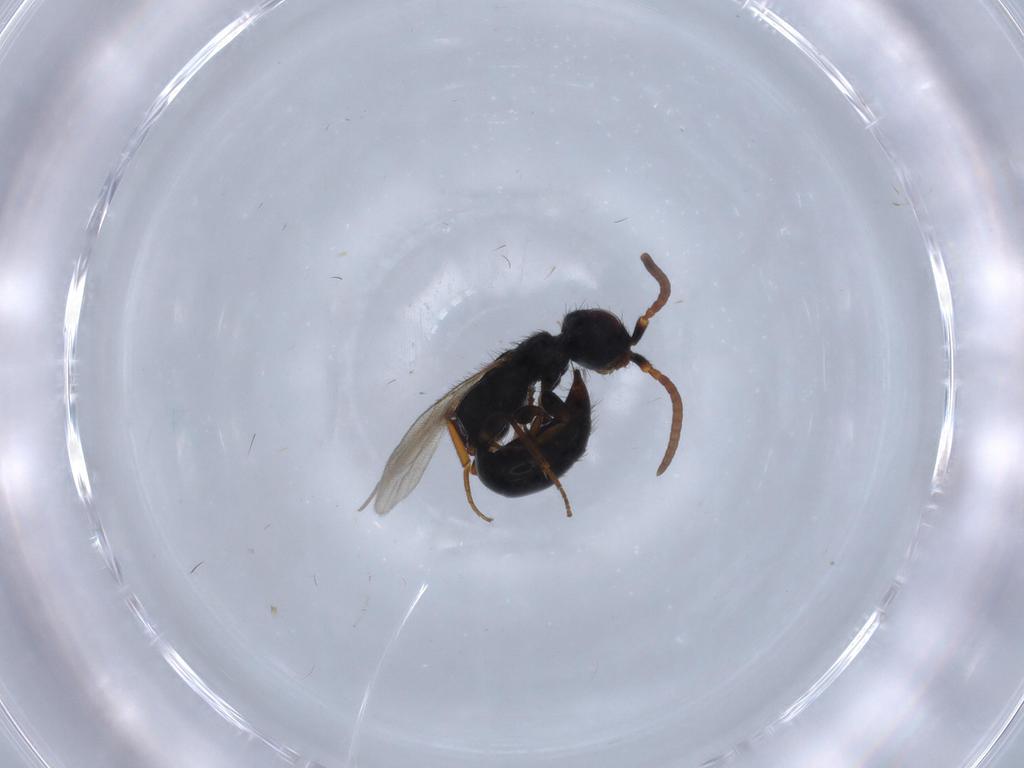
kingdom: Animalia
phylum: Arthropoda
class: Insecta
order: Hymenoptera
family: Bethylidae
